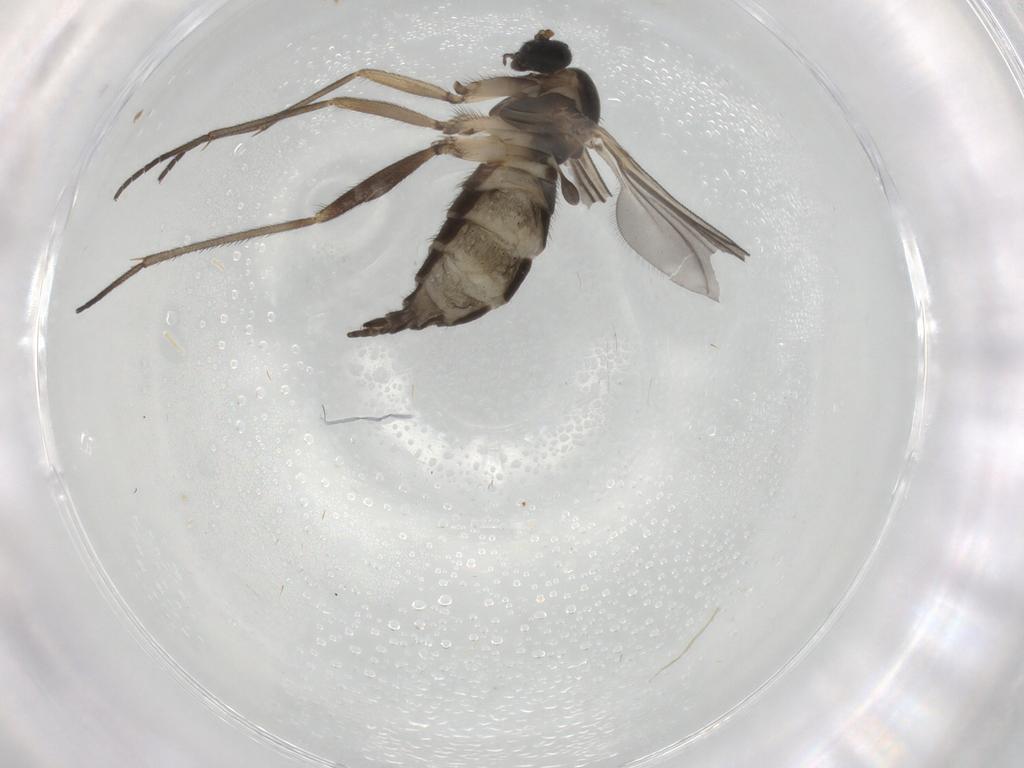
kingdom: Animalia
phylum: Arthropoda
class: Insecta
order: Diptera
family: Sciaridae
